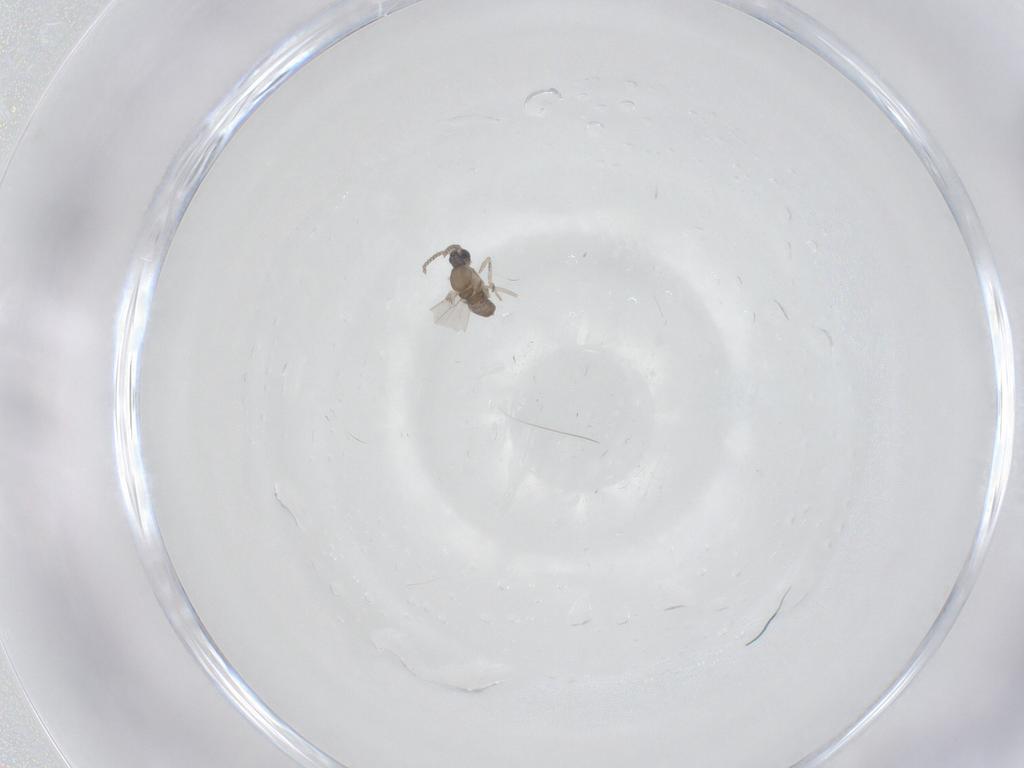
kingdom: Animalia
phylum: Arthropoda
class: Insecta
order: Diptera
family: Cecidomyiidae
